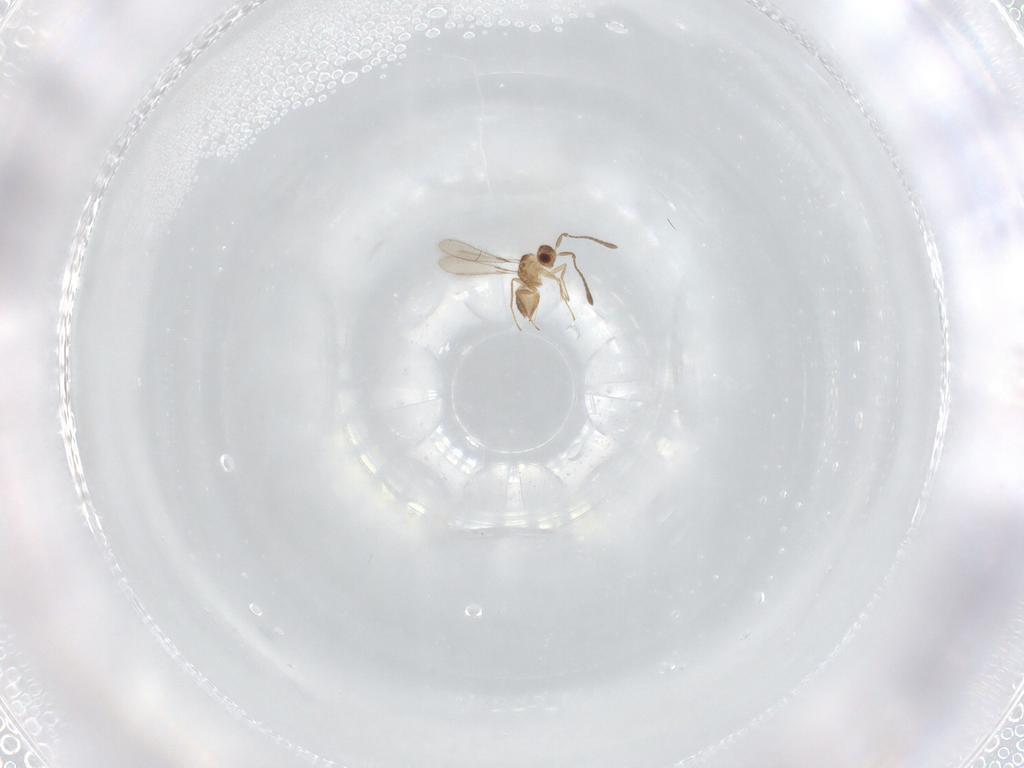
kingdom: Animalia
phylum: Arthropoda
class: Insecta
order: Hymenoptera
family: Mymaridae
